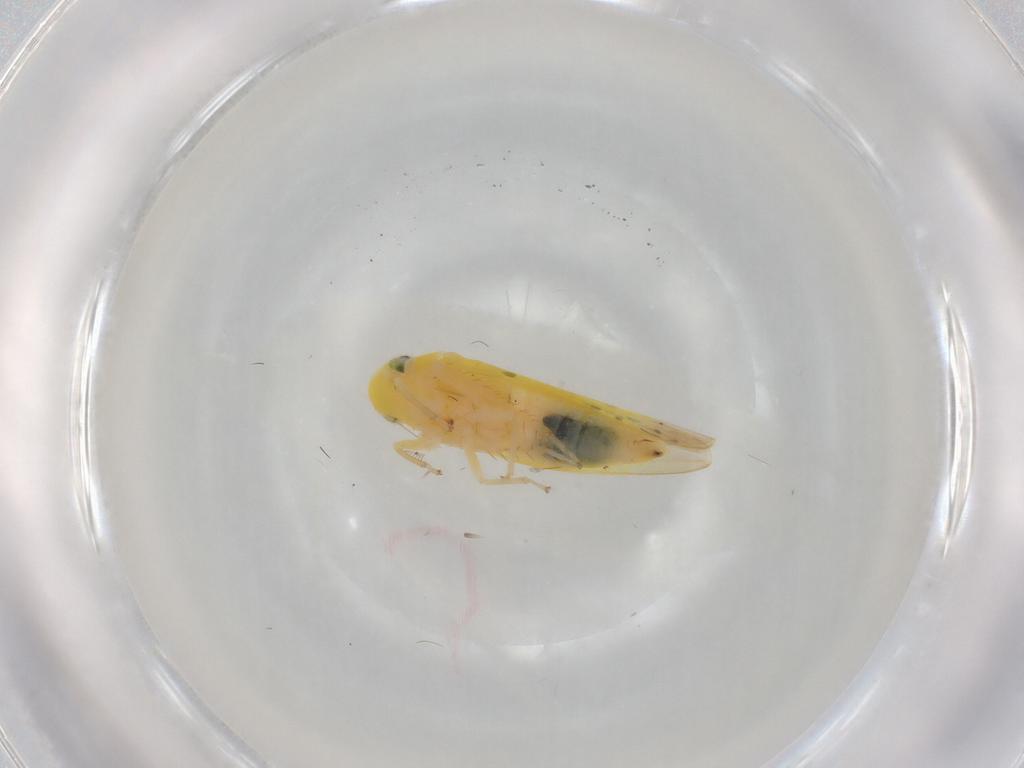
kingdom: Animalia
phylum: Arthropoda
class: Insecta
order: Hemiptera
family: Cicadellidae
